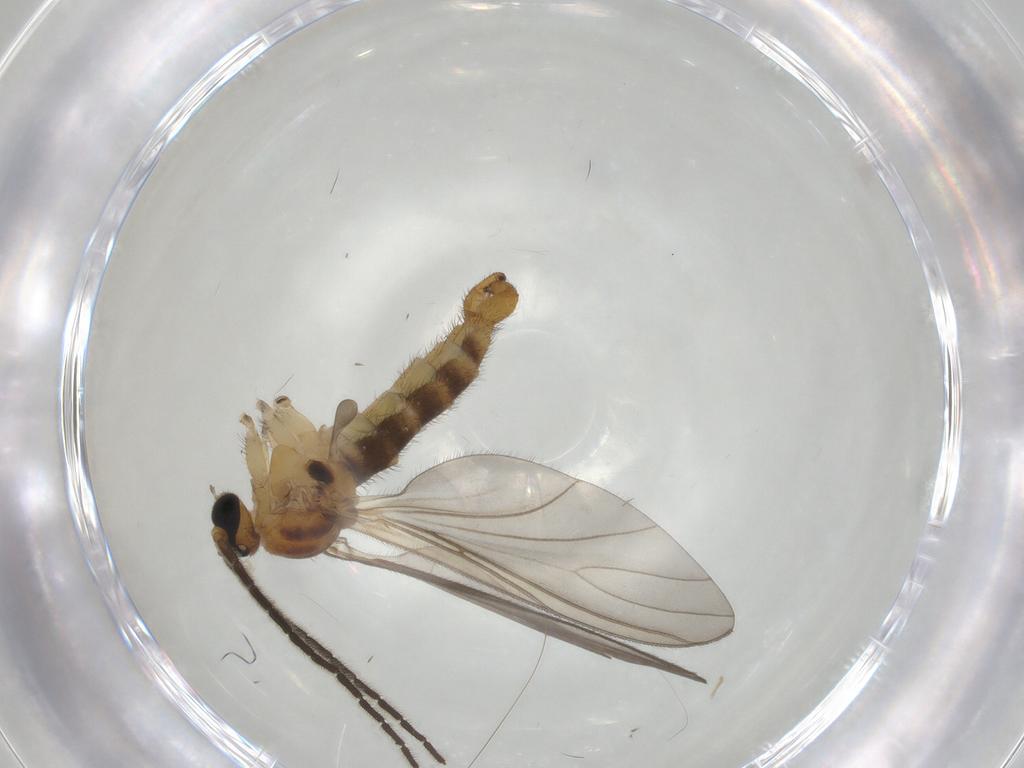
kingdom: Animalia
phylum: Arthropoda
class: Insecta
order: Diptera
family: Sciaridae
